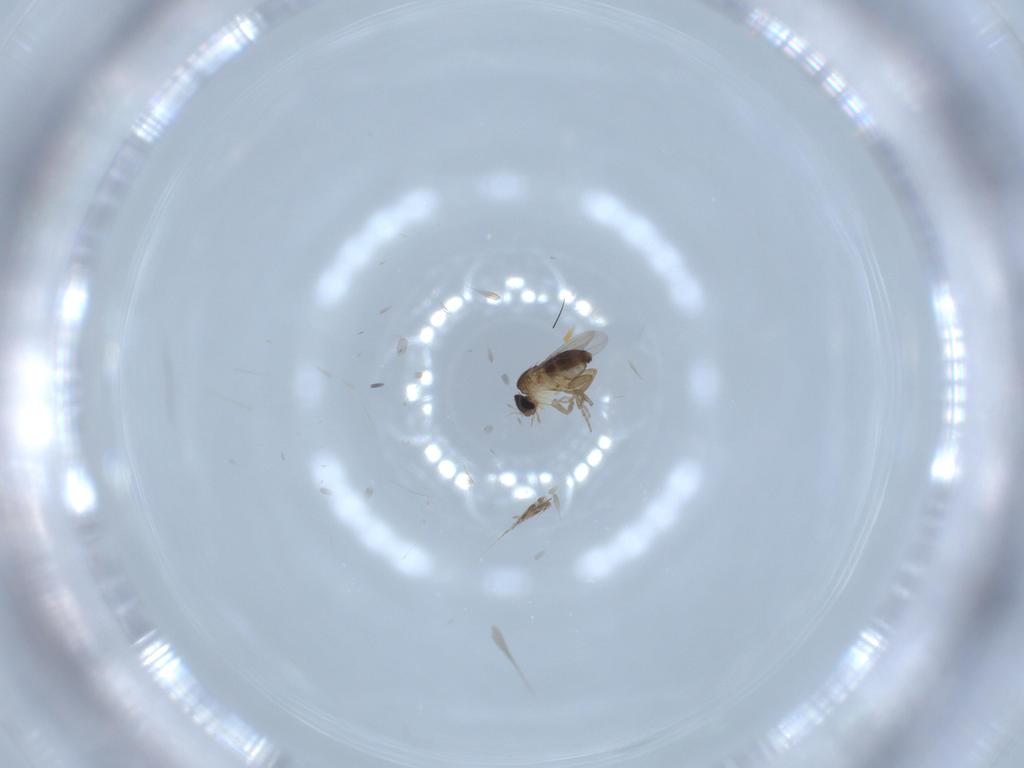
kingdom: Animalia
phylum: Arthropoda
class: Insecta
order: Diptera
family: Phoridae
